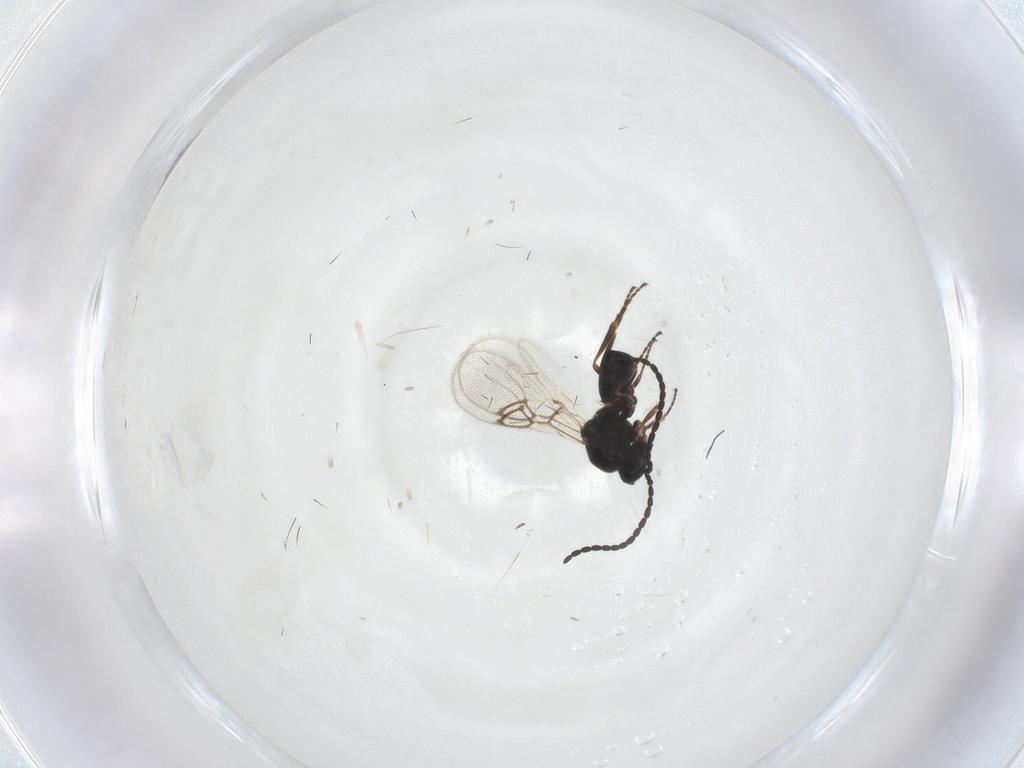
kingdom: Animalia
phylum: Arthropoda
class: Insecta
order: Hymenoptera
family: Figitidae
